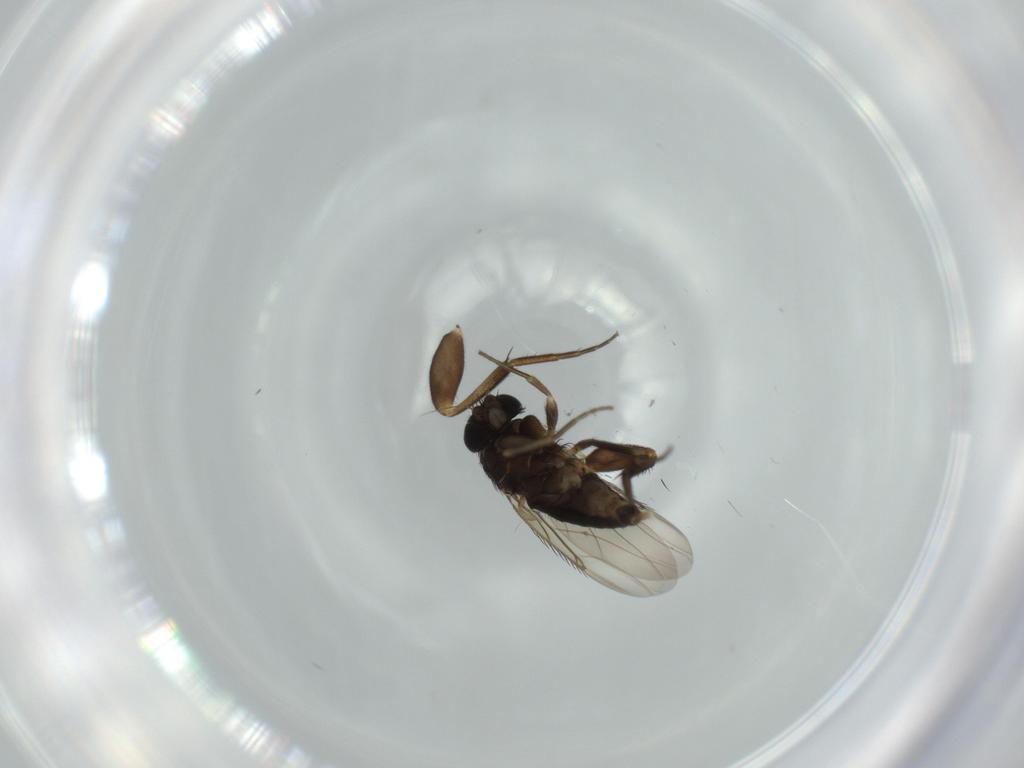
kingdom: Animalia
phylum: Arthropoda
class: Insecta
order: Diptera
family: Phoridae
